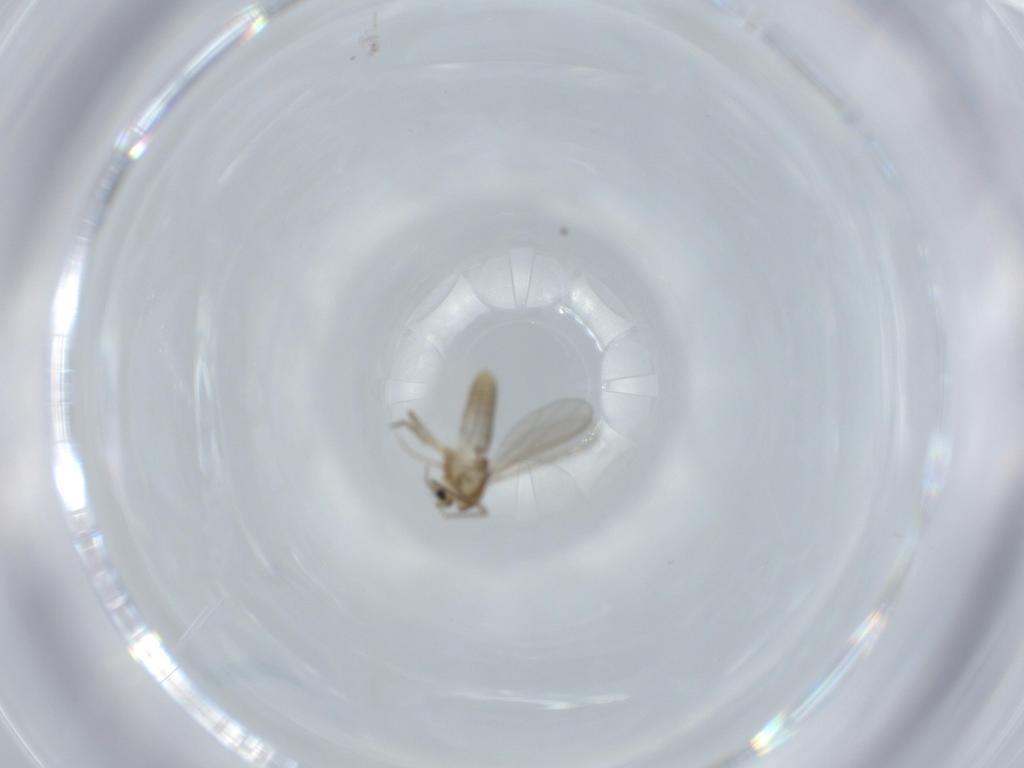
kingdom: Animalia
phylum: Arthropoda
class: Insecta
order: Diptera
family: Chironomidae
